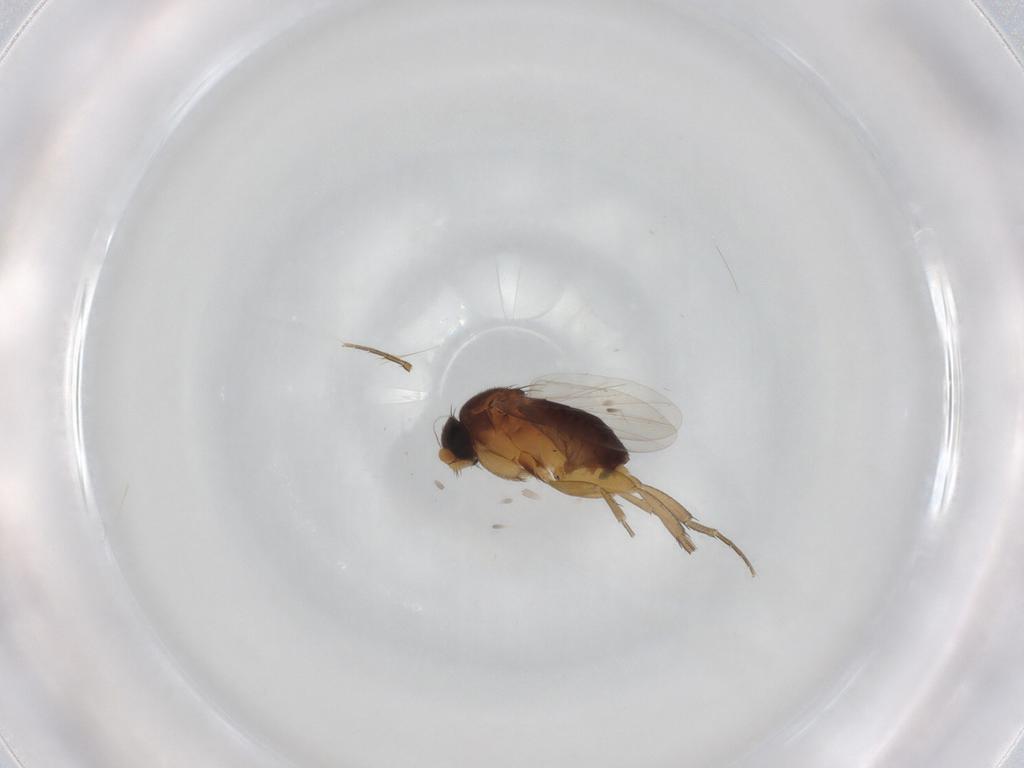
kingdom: Animalia
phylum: Arthropoda
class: Insecta
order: Diptera
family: Phoridae
